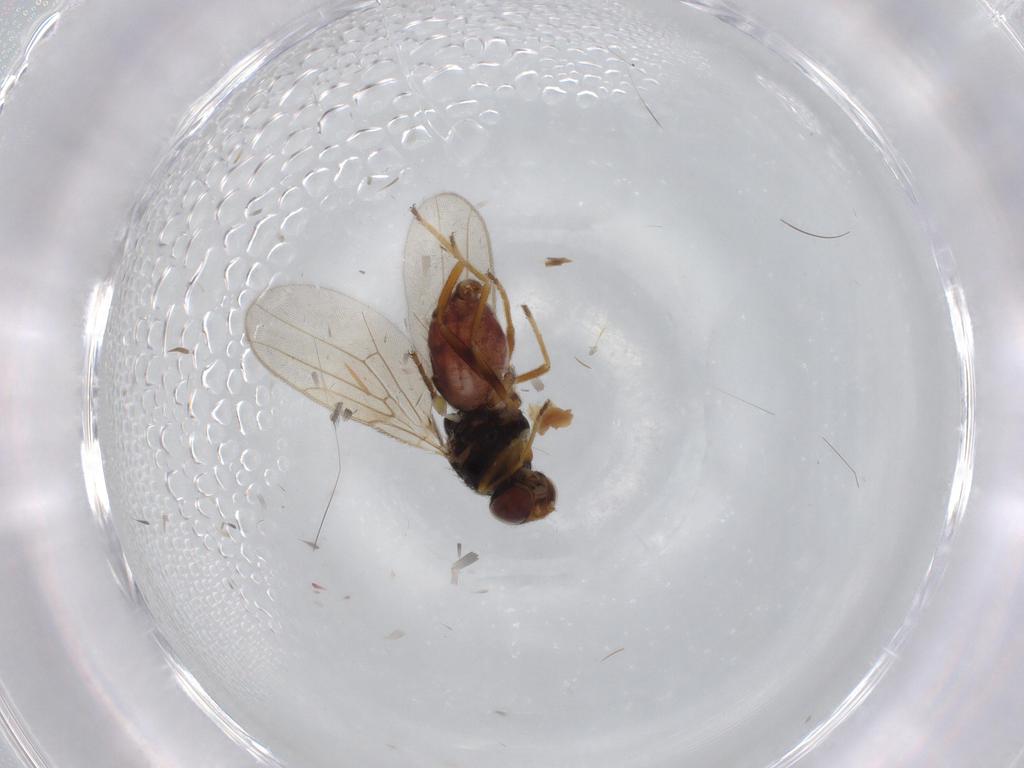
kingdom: Animalia
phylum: Arthropoda
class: Insecta
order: Diptera
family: Chloropidae
